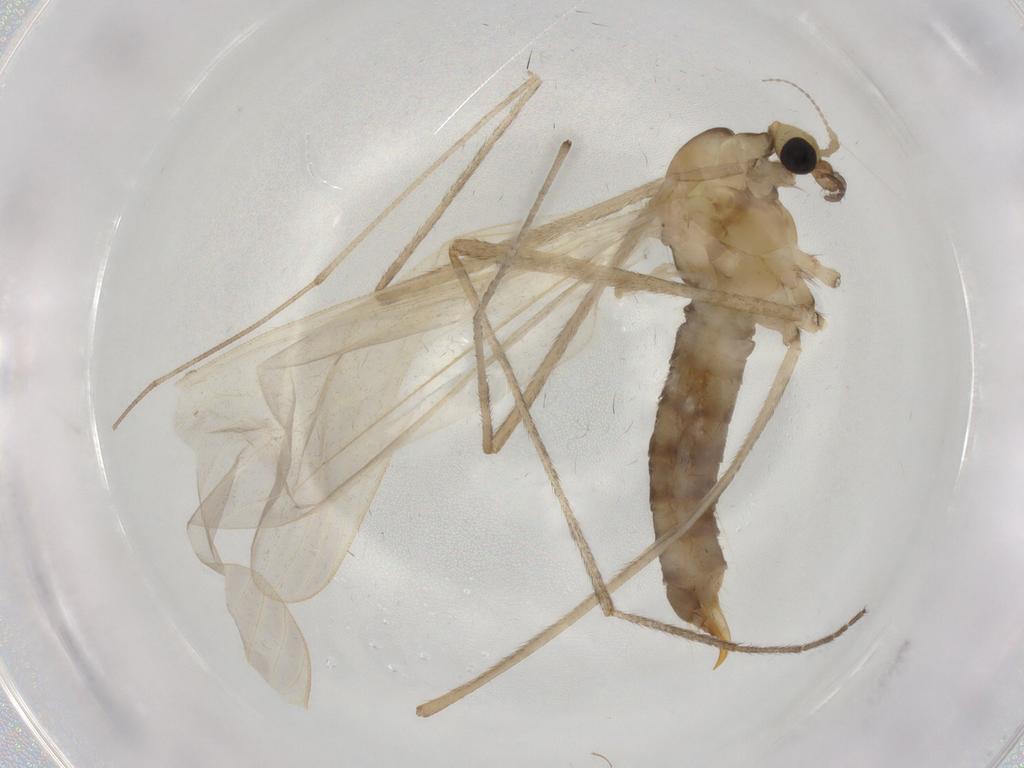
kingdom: Animalia
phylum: Arthropoda
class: Insecta
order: Diptera
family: Limoniidae
